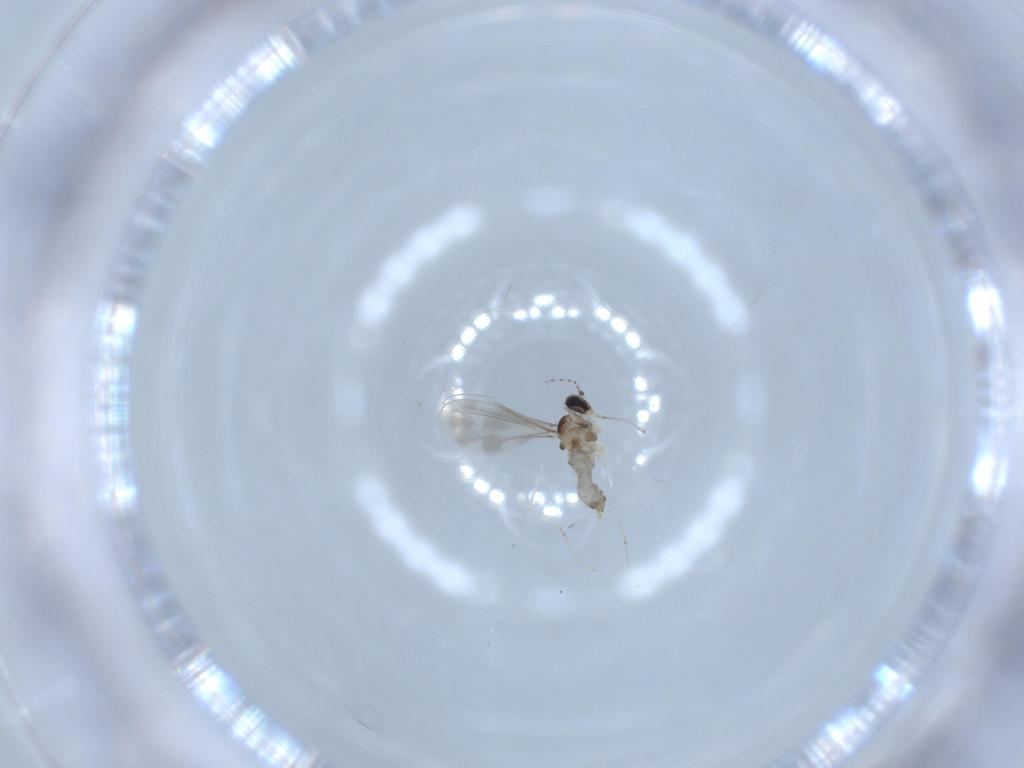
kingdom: Animalia
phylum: Arthropoda
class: Insecta
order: Diptera
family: Cecidomyiidae
